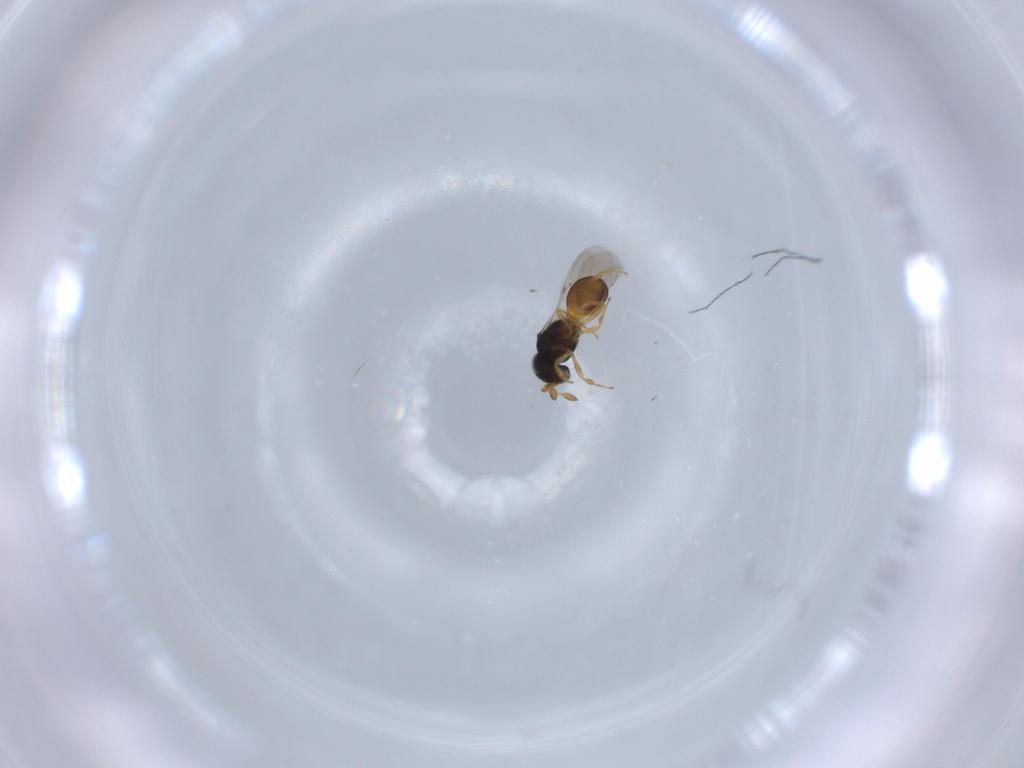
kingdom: Animalia
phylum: Arthropoda
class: Insecta
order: Hymenoptera
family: Scelionidae
